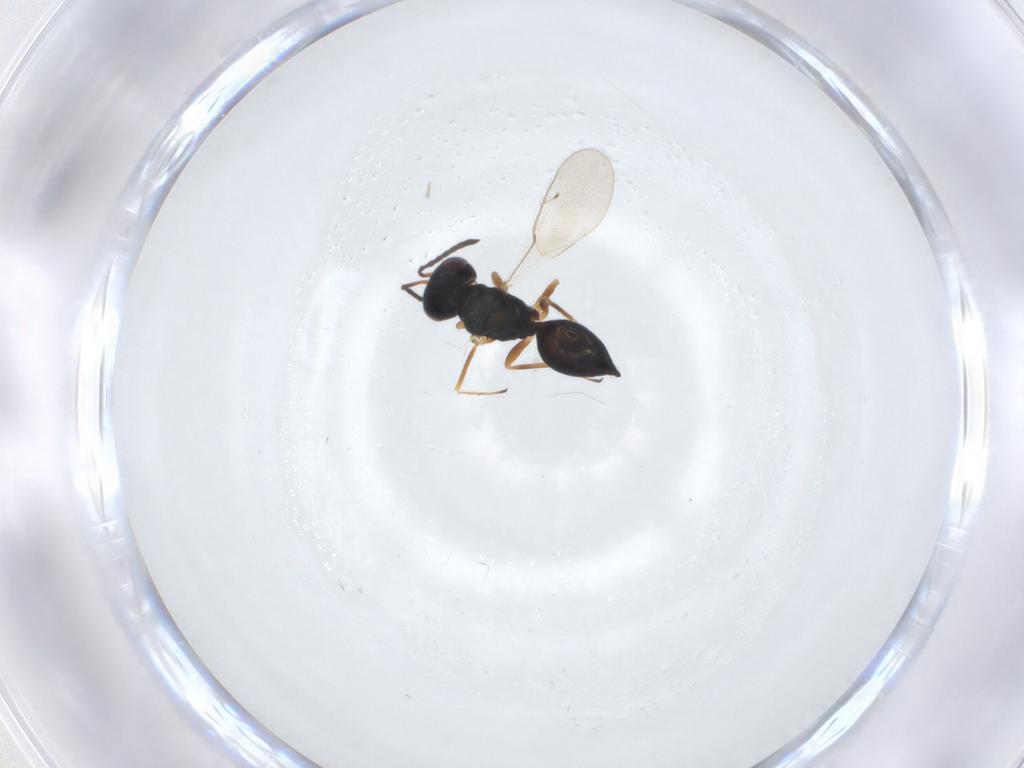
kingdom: Animalia
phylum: Arthropoda
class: Insecta
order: Hymenoptera
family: Pteromalidae
